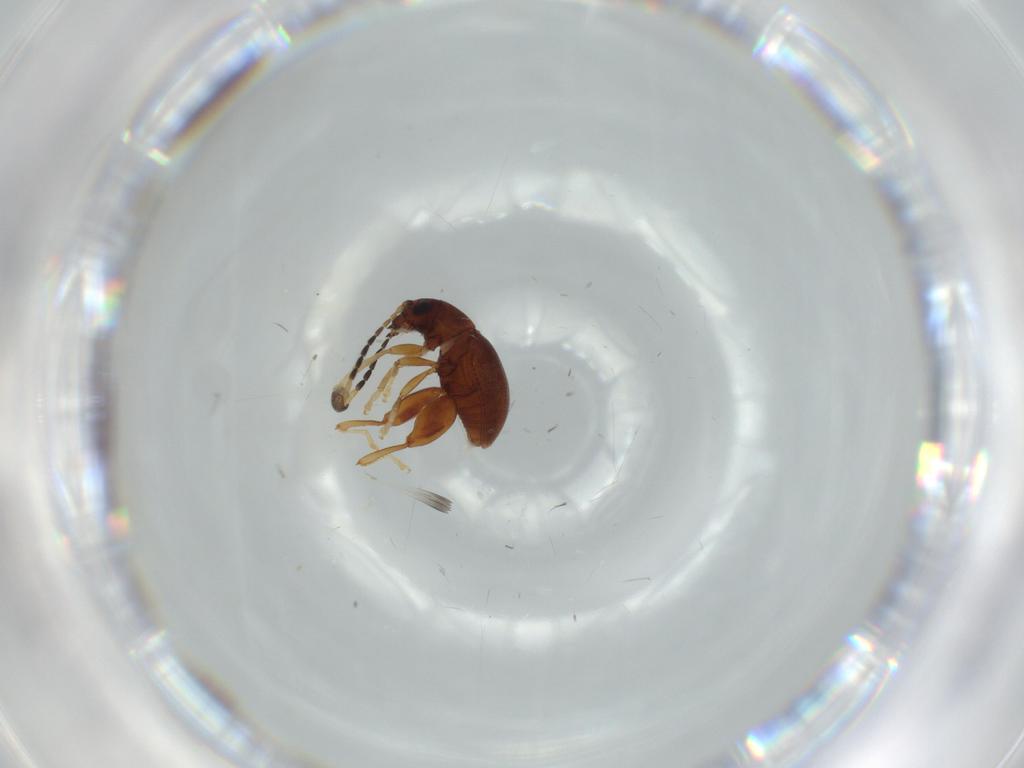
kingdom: Animalia
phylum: Arthropoda
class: Insecta
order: Coleoptera
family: Chrysomelidae
